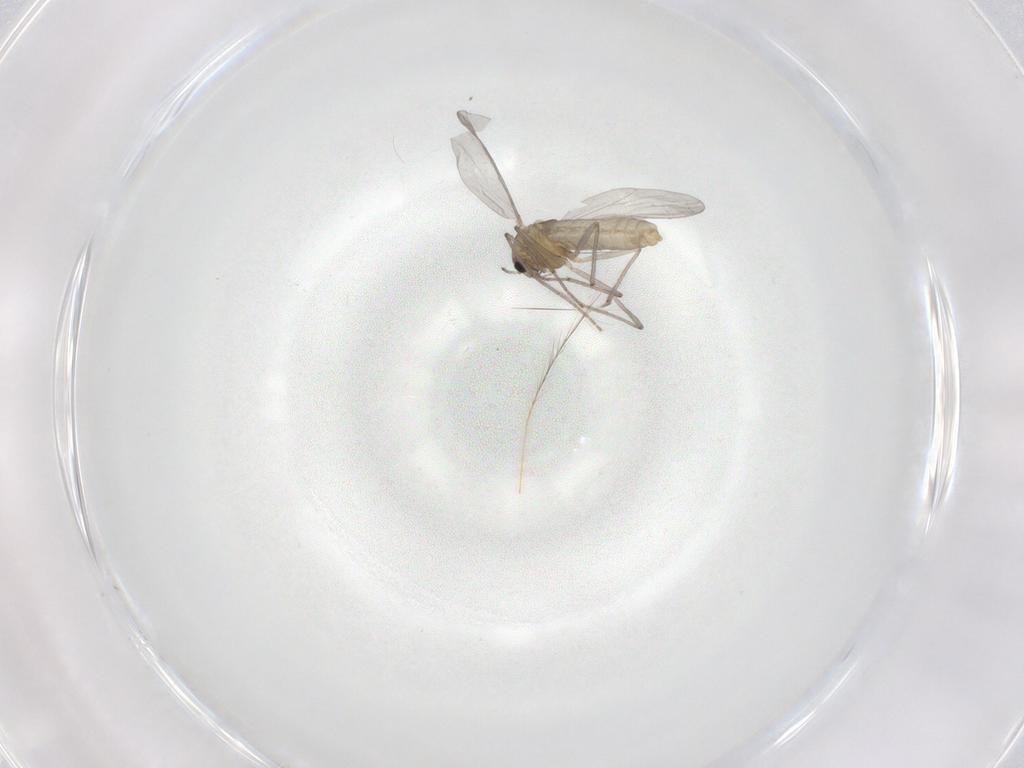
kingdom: Animalia
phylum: Arthropoda
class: Insecta
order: Diptera
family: Chironomidae
